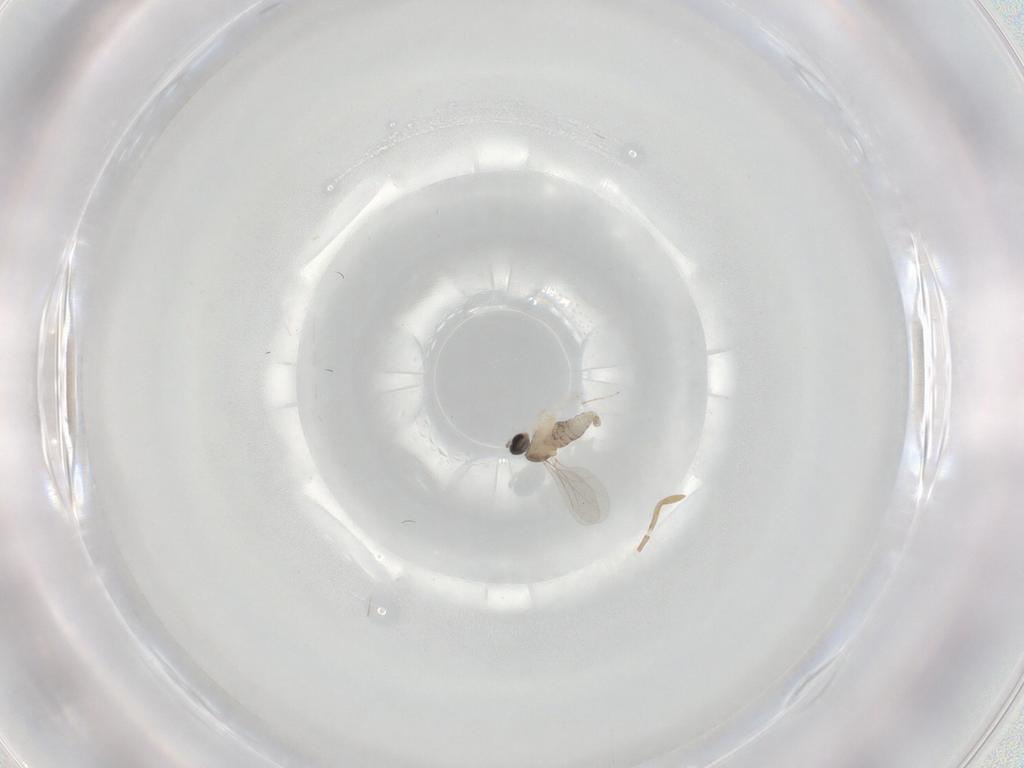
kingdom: Animalia
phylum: Arthropoda
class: Insecta
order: Diptera
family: Cecidomyiidae
